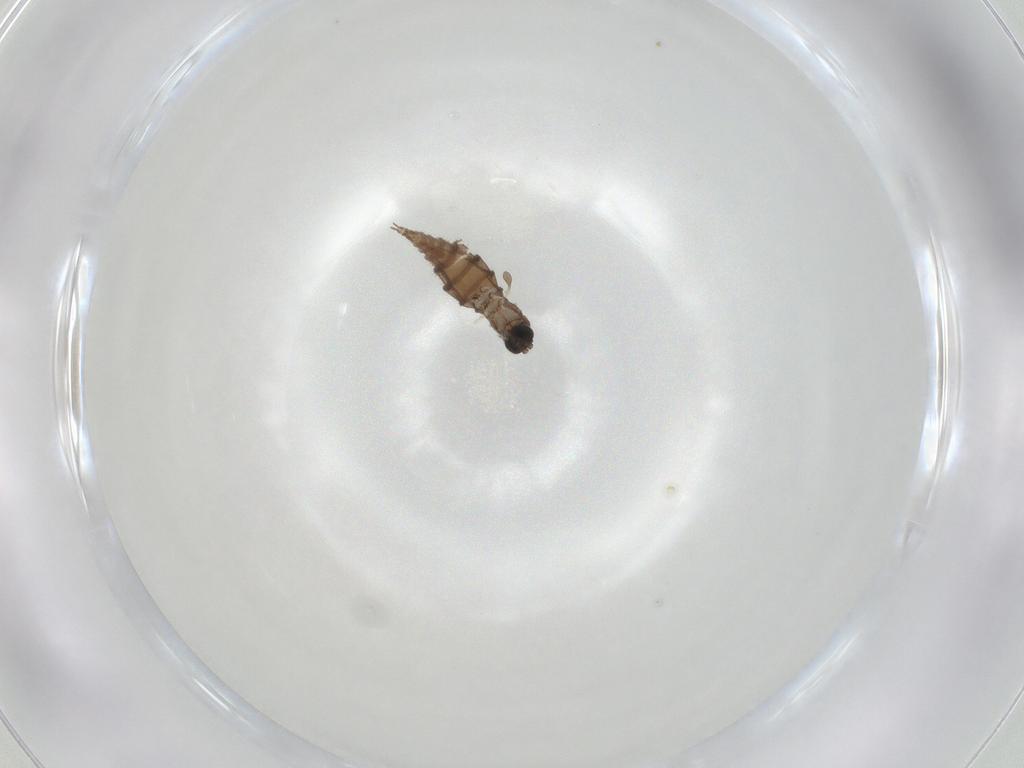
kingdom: Animalia
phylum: Arthropoda
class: Insecta
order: Diptera
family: Sciaridae
